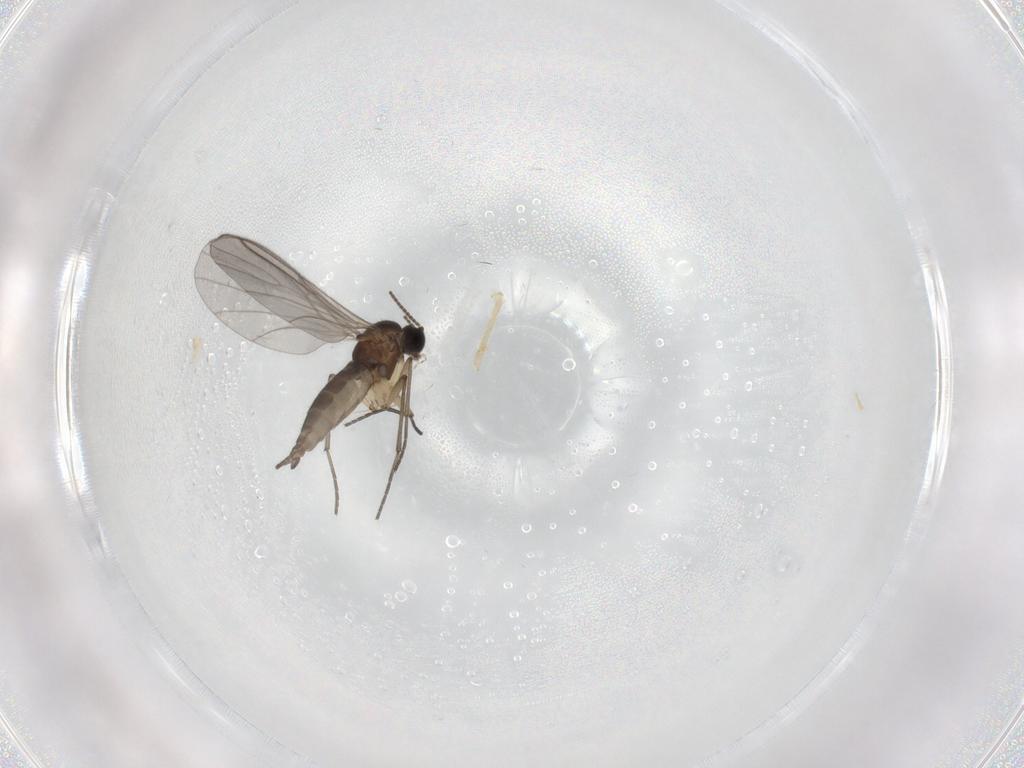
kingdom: Animalia
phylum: Arthropoda
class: Insecta
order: Diptera
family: Sciaridae
